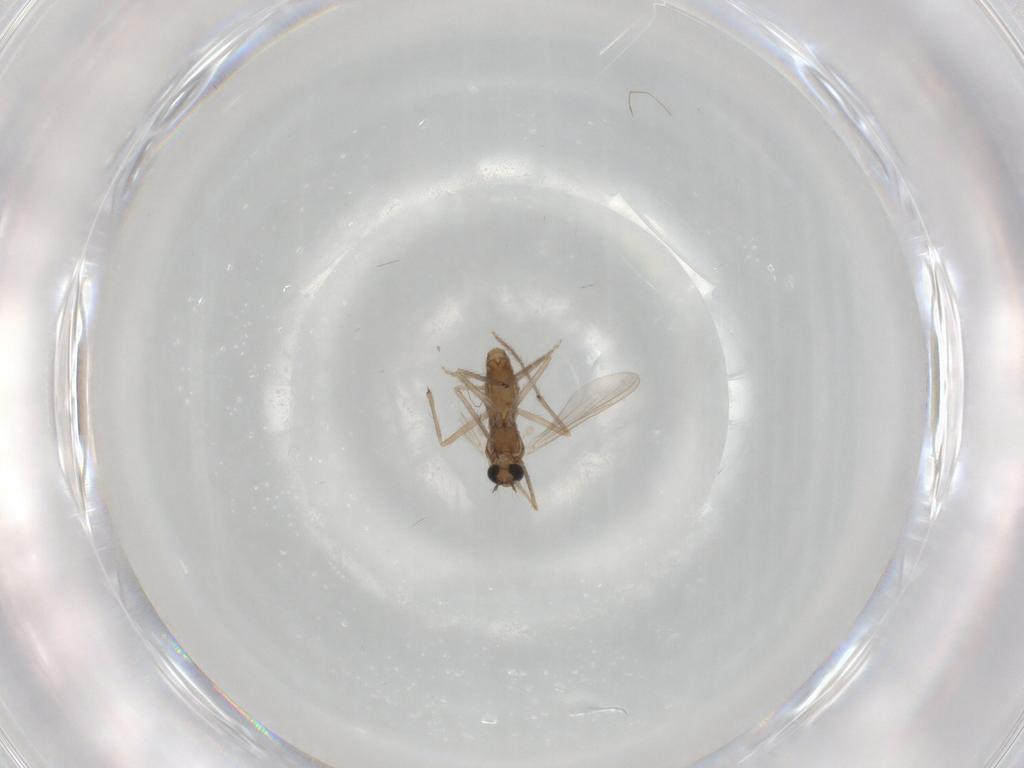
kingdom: Animalia
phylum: Arthropoda
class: Insecta
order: Diptera
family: Chironomidae
